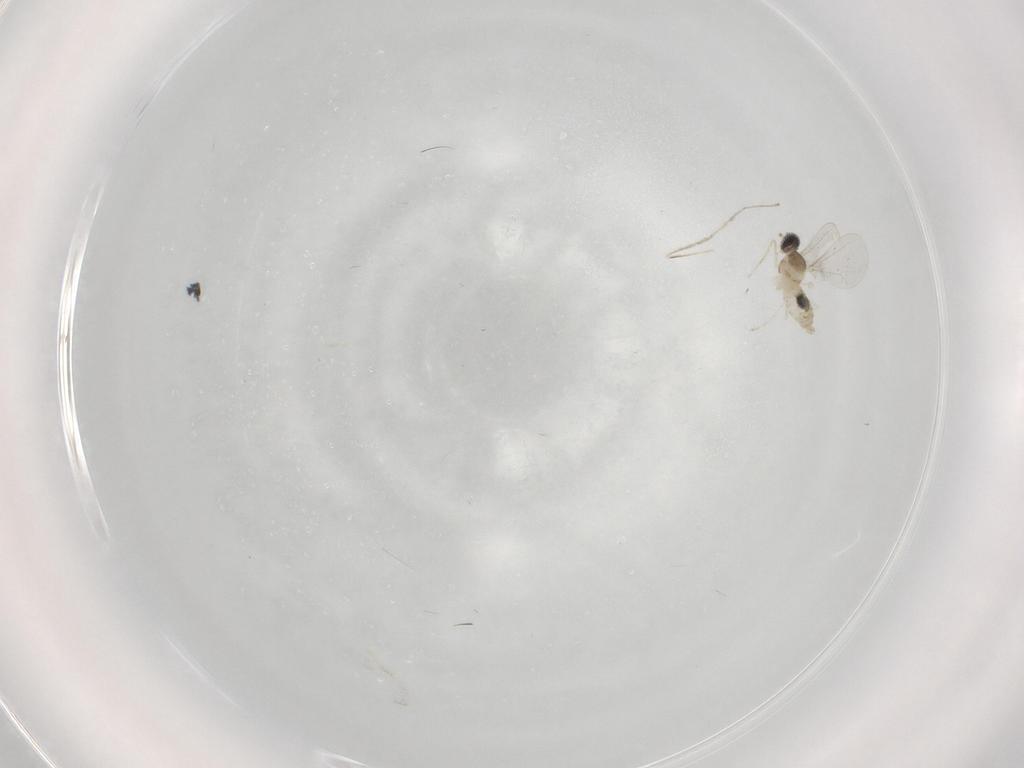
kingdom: Animalia
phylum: Arthropoda
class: Insecta
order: Diptera
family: Cecidomyiidae
